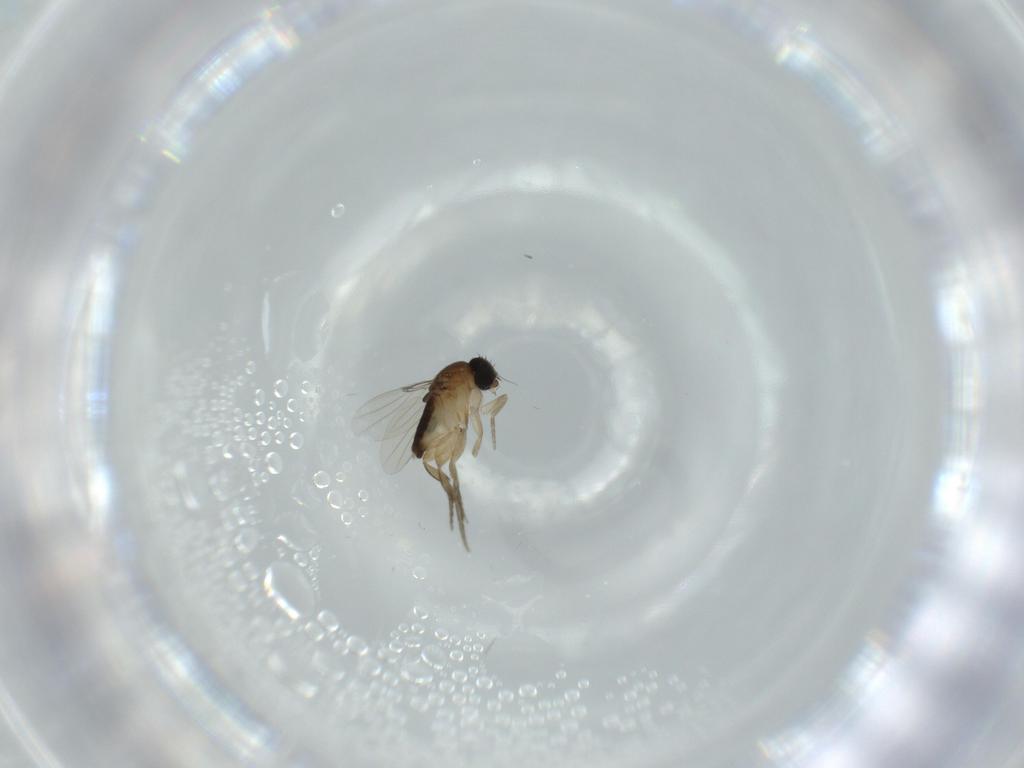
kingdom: Animalia
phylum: Arthropoda
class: Insecta
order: Diptera
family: Phoridae
